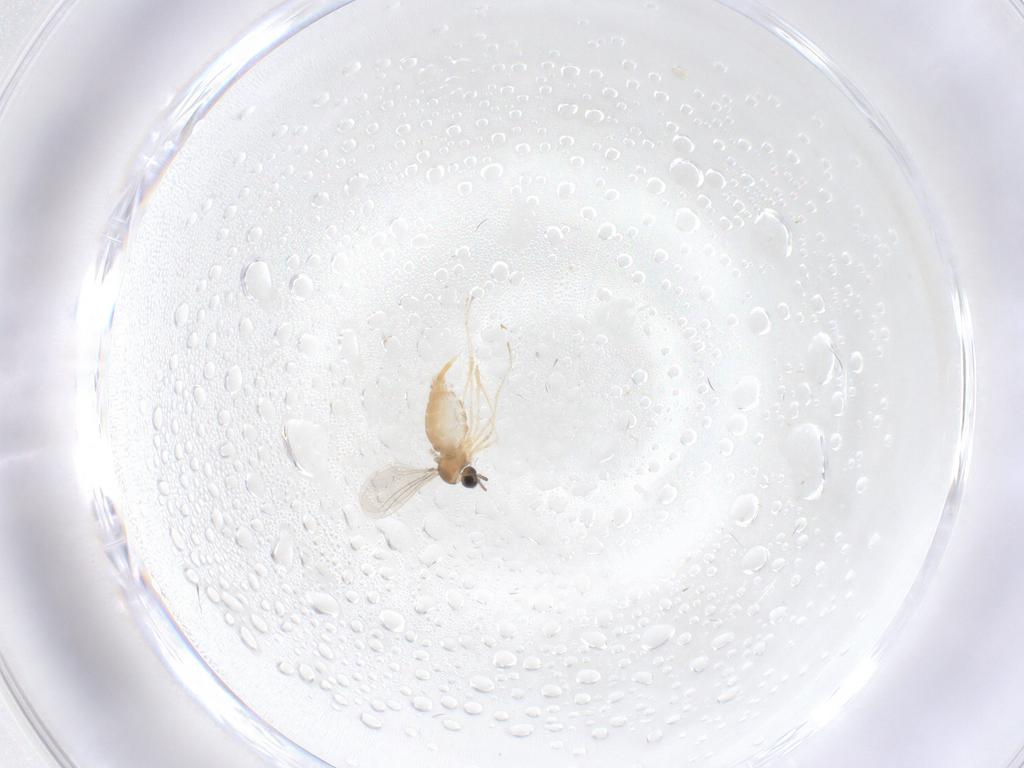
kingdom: Animalia
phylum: Arthropoda
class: Insecta
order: Diptera
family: Cecidomyiidae
